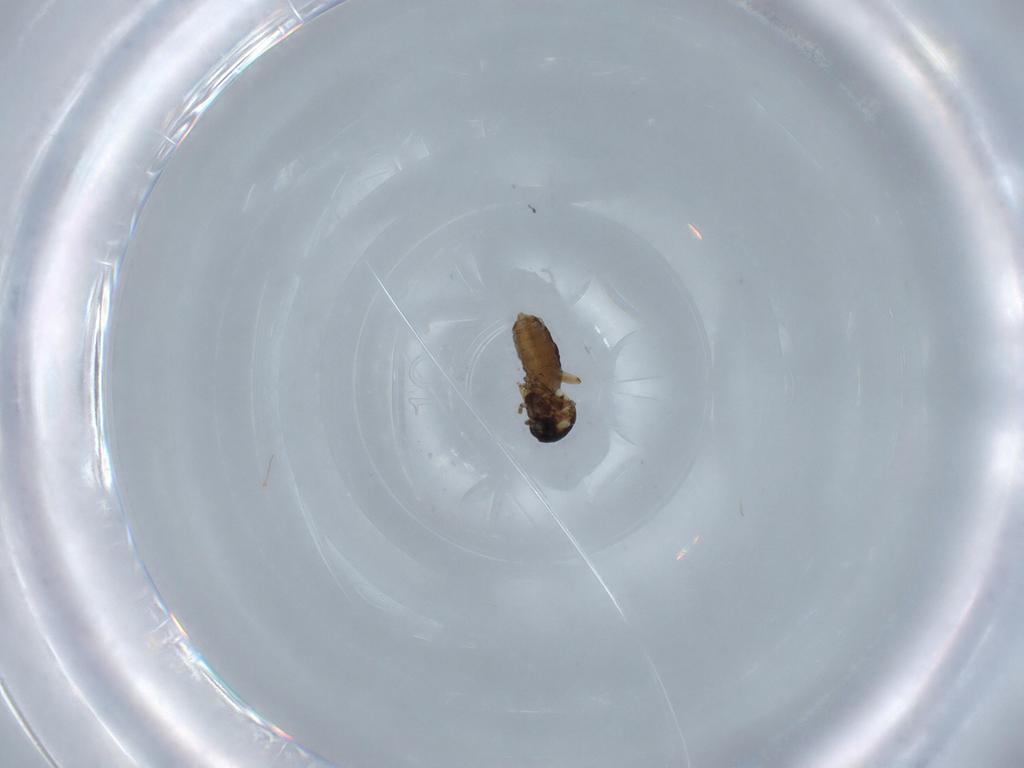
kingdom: Animalia
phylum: Arthropoda
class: Insecta
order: Diptera
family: Ceratopogonidae
